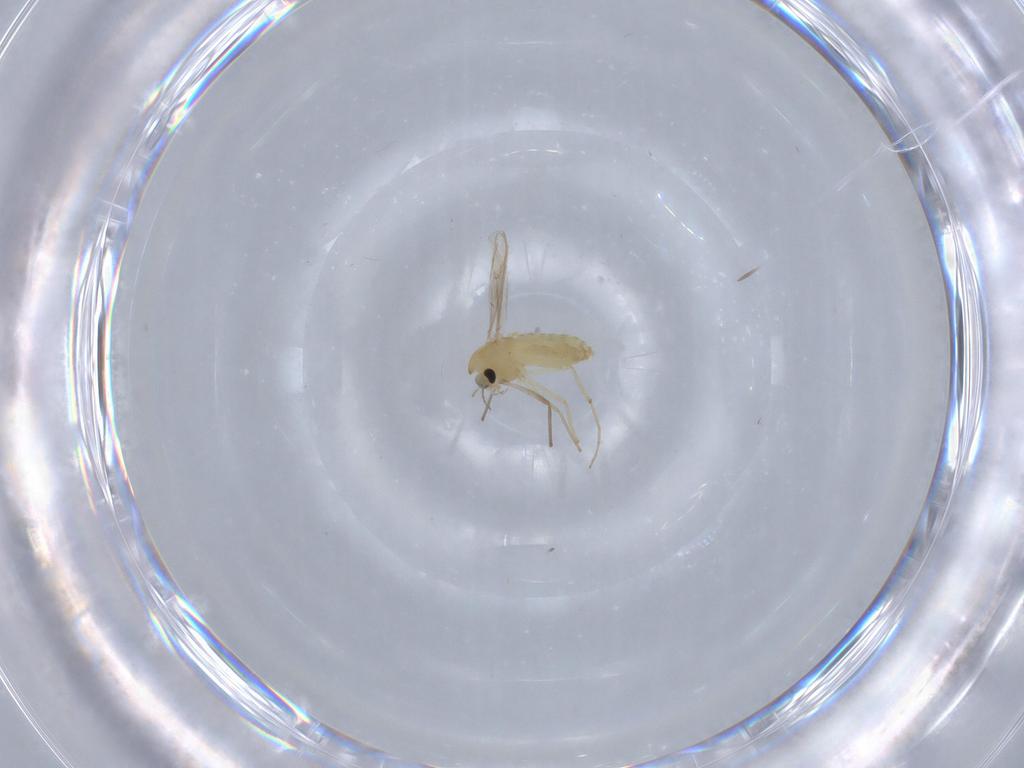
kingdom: Animalia
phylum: Arthropoda
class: Insecta
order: Diptera
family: Chironomidae
